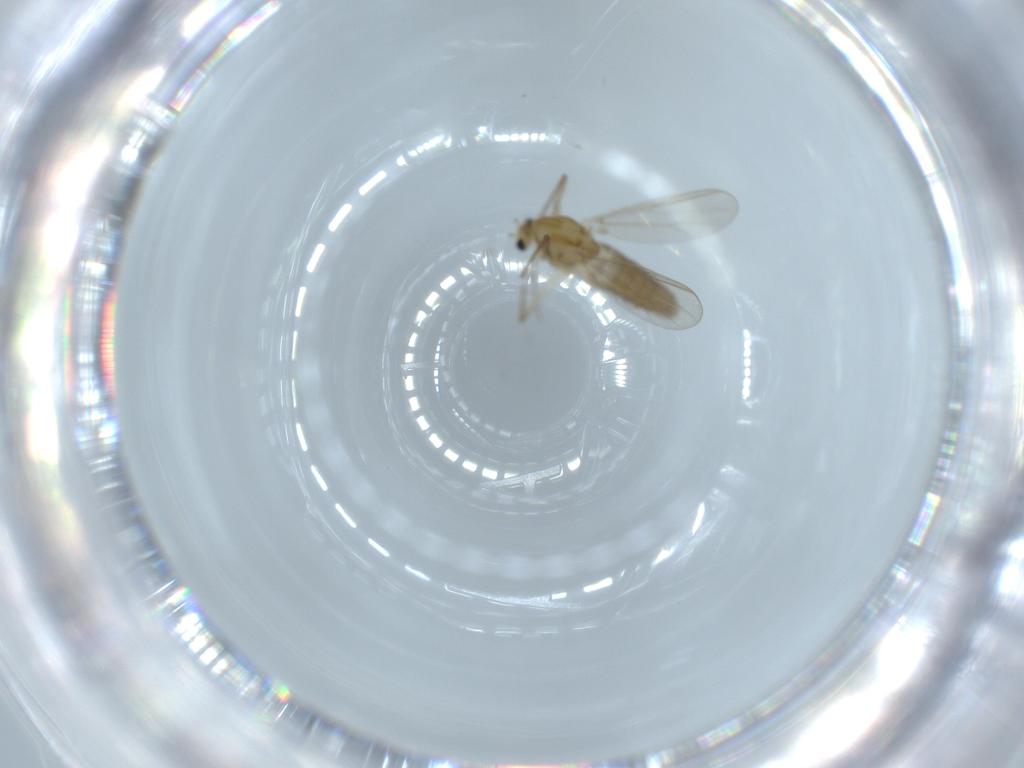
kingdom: Animalia
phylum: Arthropoda
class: Insecta
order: Diptera
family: Chironomidae
